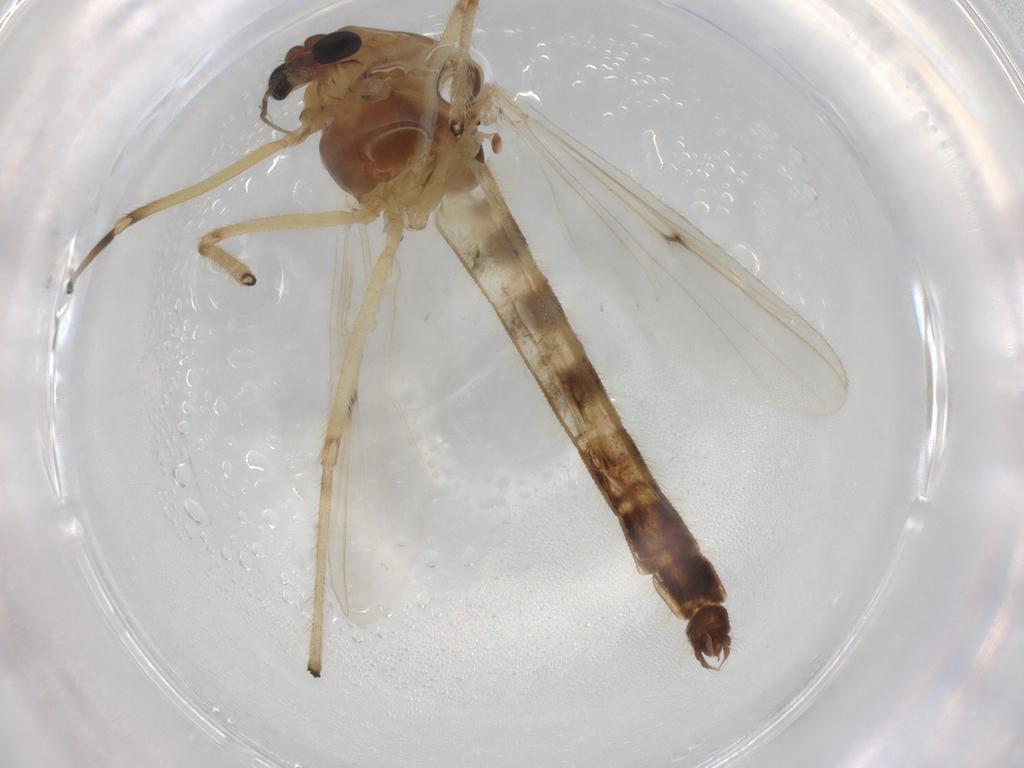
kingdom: Animalia
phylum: Arthropoda
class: Insecta
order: Diptera
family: Chironomidae
